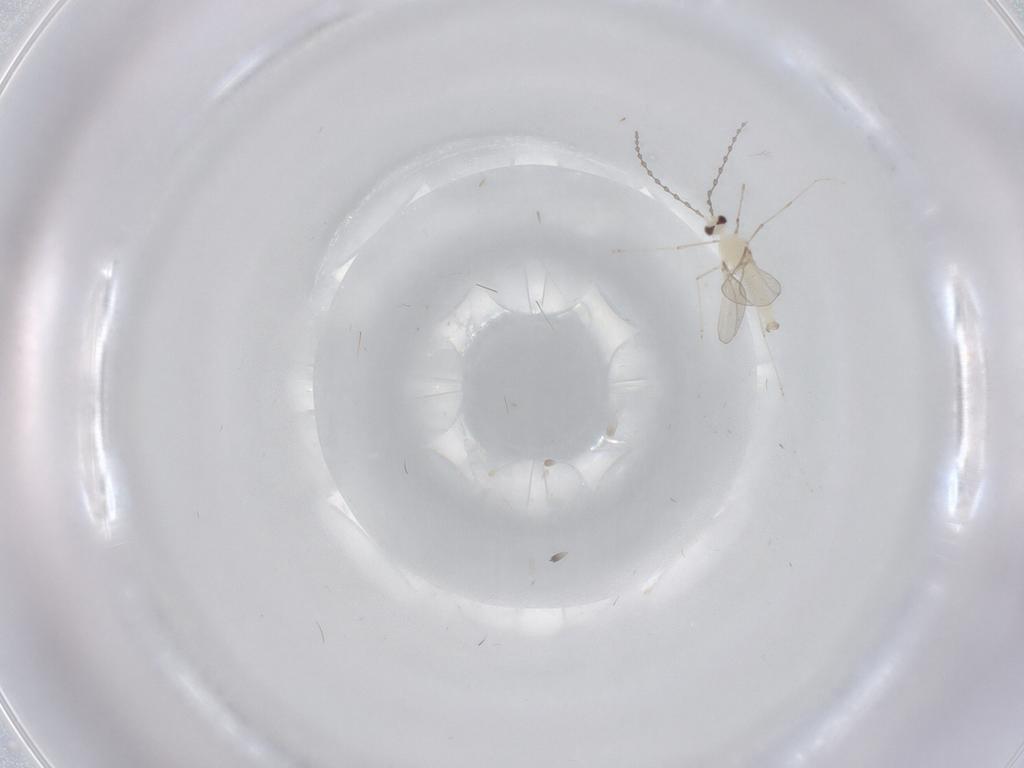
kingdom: Animalia
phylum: Arthropoda
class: Insecta
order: Diptera
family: Cecidomyiidae
